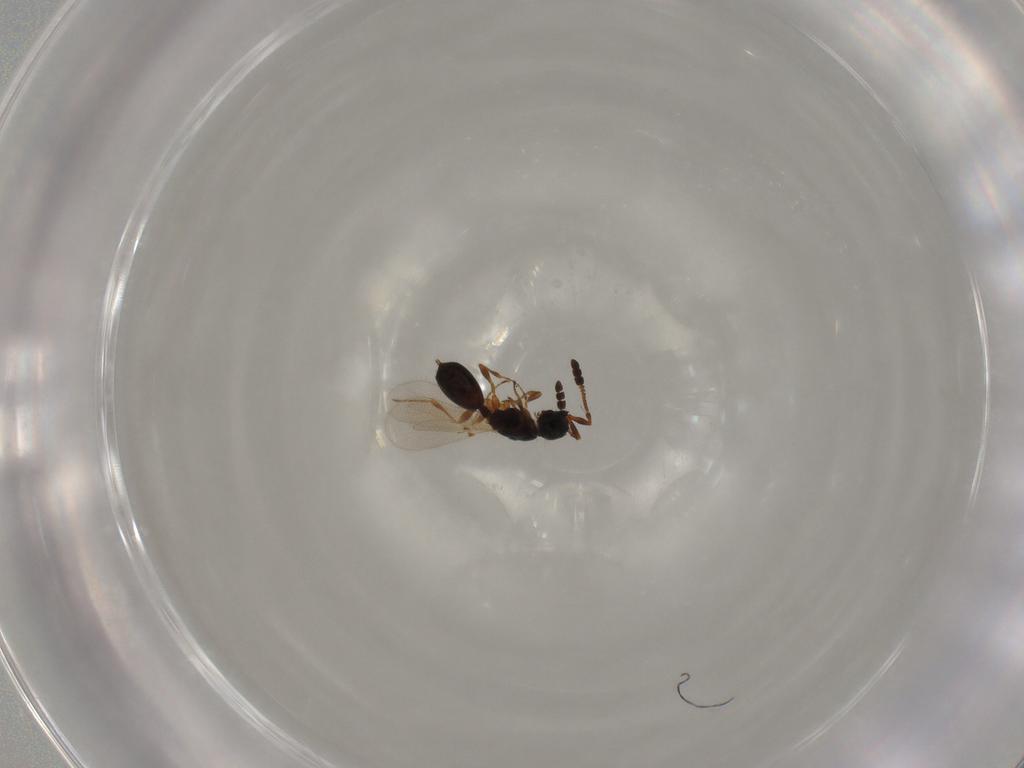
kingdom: Animalia
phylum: Arthropoda
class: Insecta
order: Hymenoptera
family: Diapriidae
